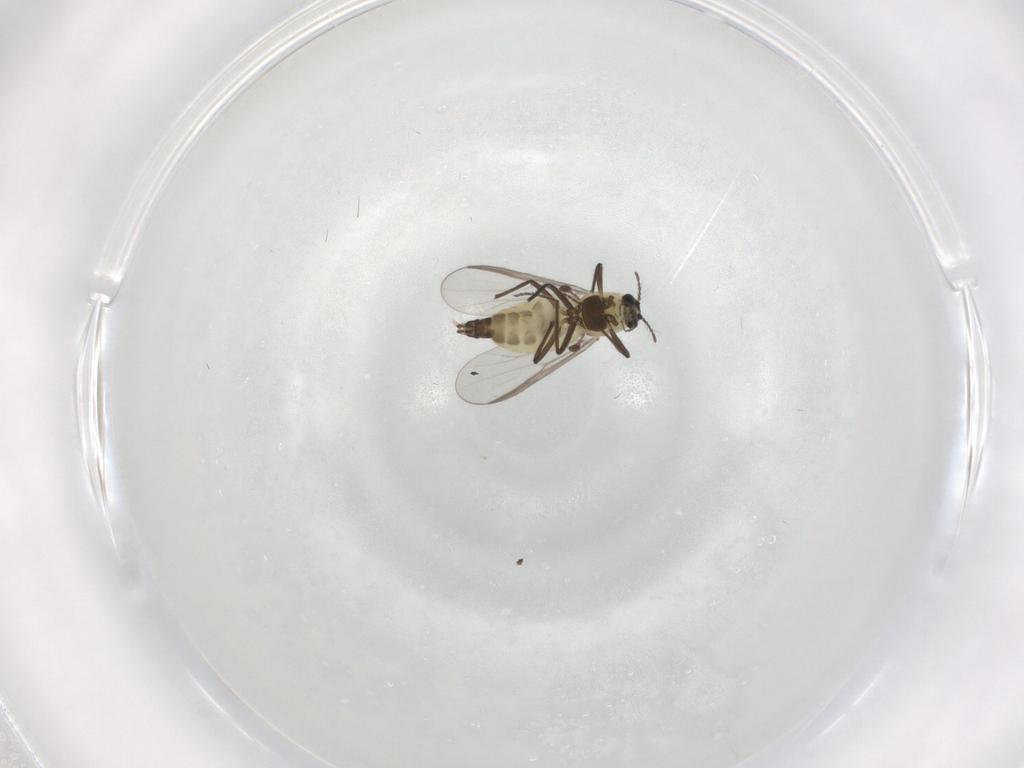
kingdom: Animalia
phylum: Arthropoda
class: Insecta
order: Diptera
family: Chironomidae
